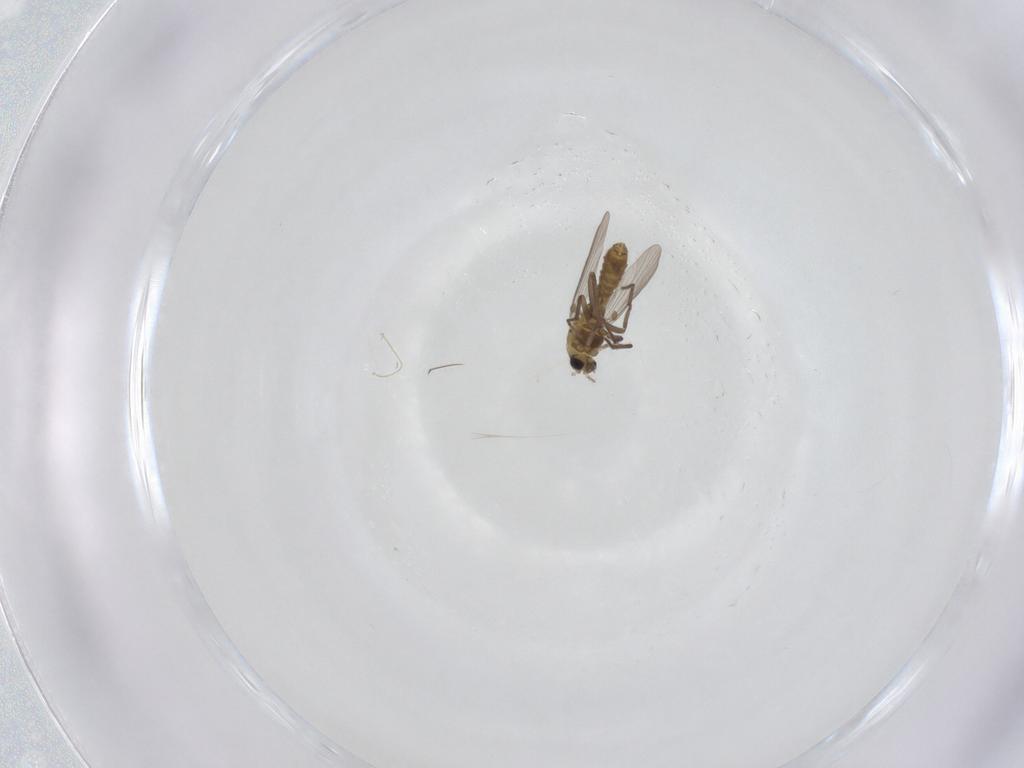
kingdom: Animalia
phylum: Arthropoda
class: Insecta
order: Diptera
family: Chironomidae
